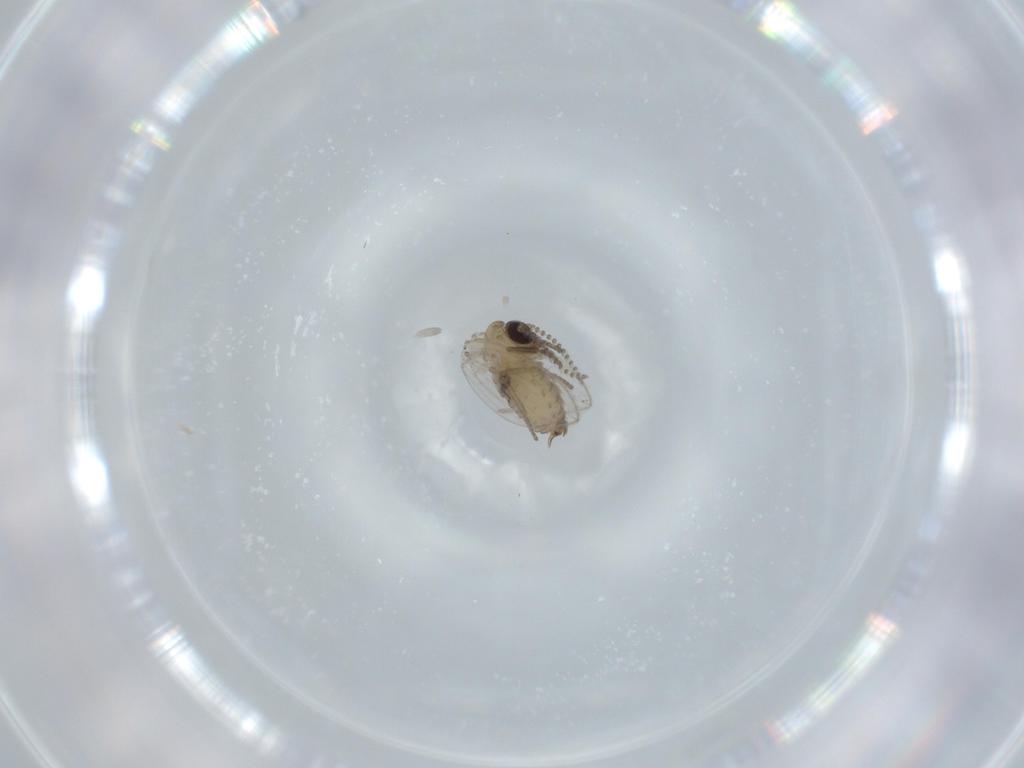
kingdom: Animalia
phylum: Arthropoda
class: Insecta
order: Diptera
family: Psychodidae
